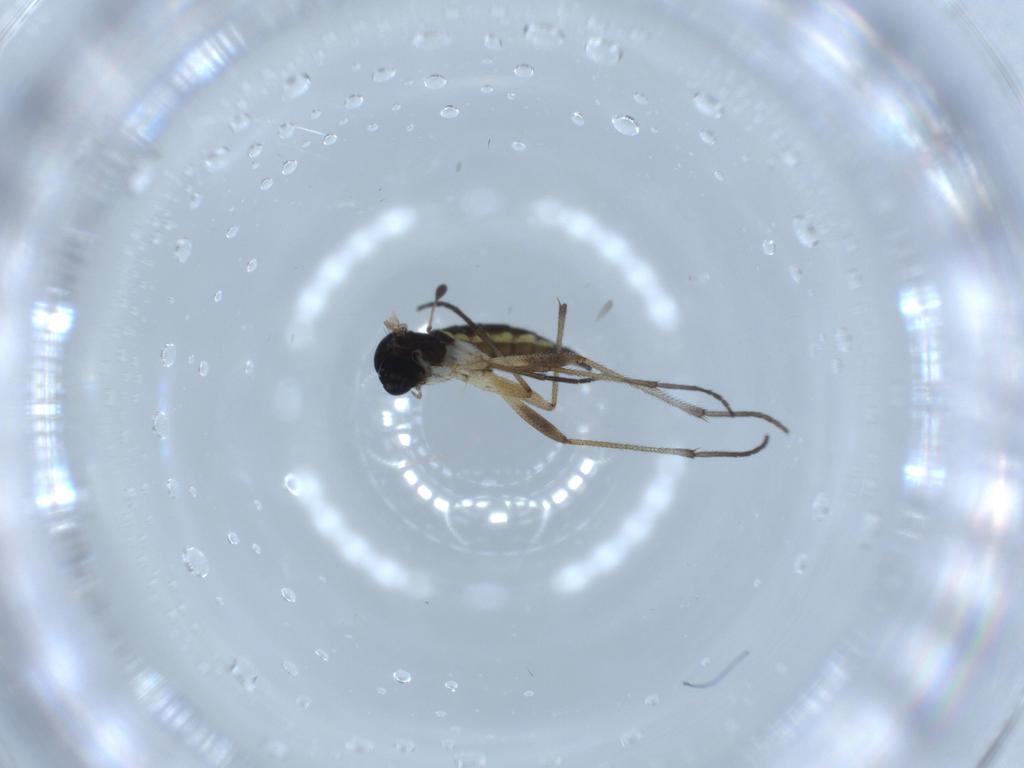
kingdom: Animalia
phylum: Arthropoda
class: Insecta
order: Diptera
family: Sciaridae
